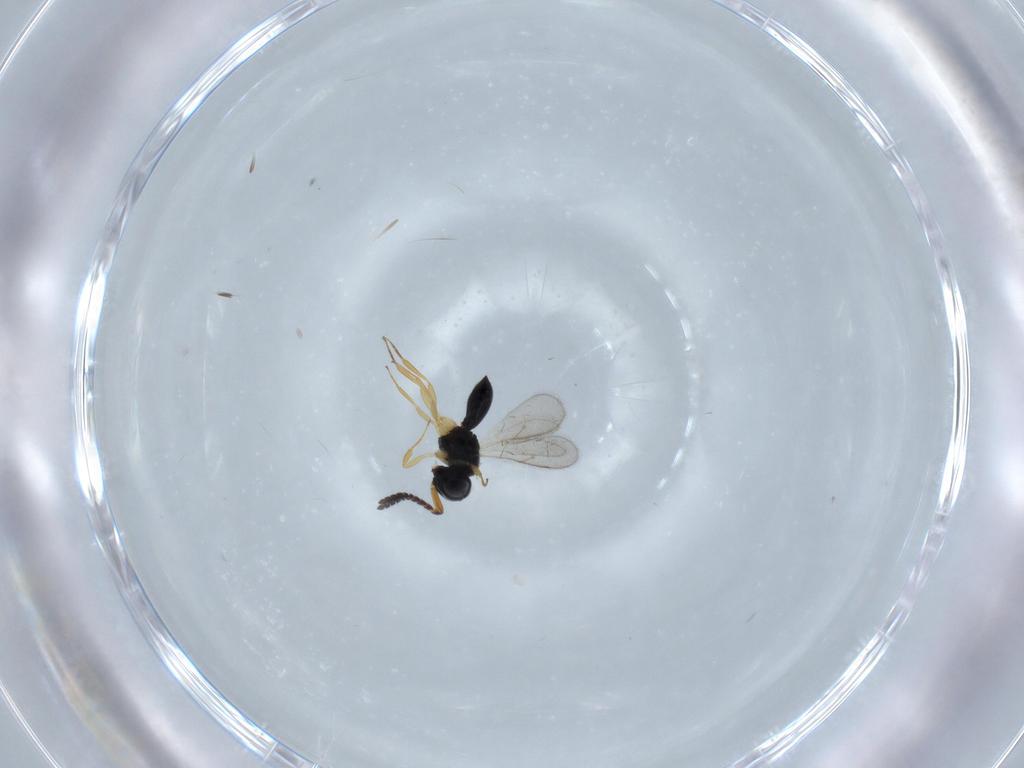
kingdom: Animalia
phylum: Arthropoda
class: Insecta
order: Hymenoptera
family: Scelionidae
